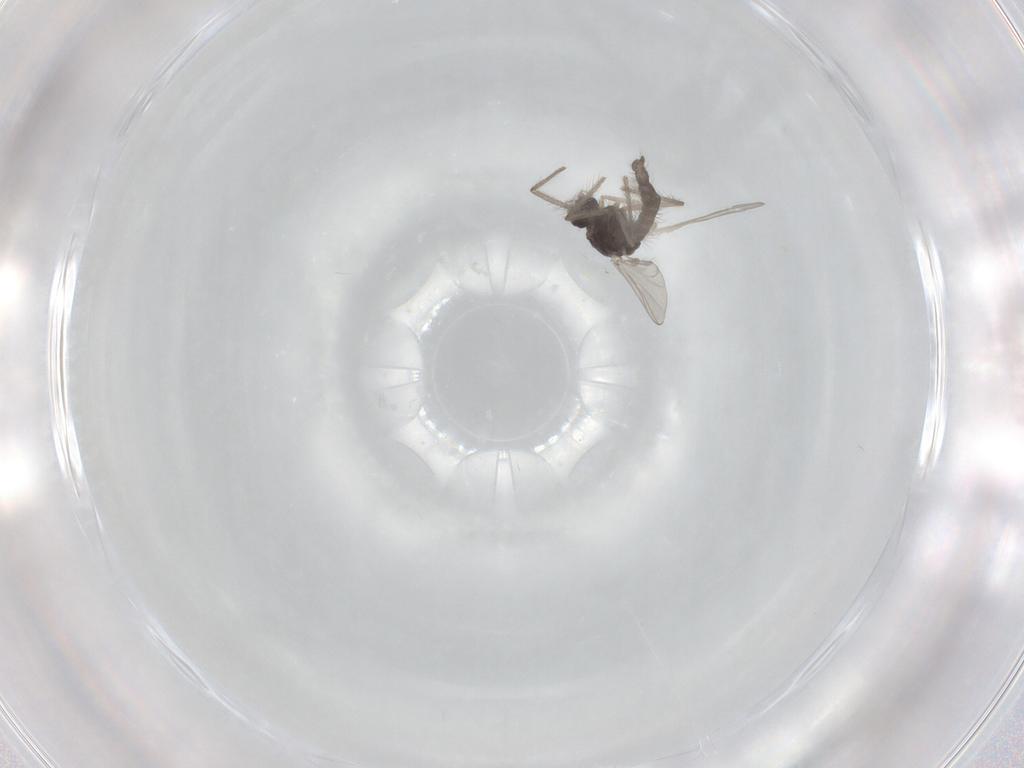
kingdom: Animalia
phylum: Arthropoda
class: Insecta
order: Diptera
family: Chironomidae
